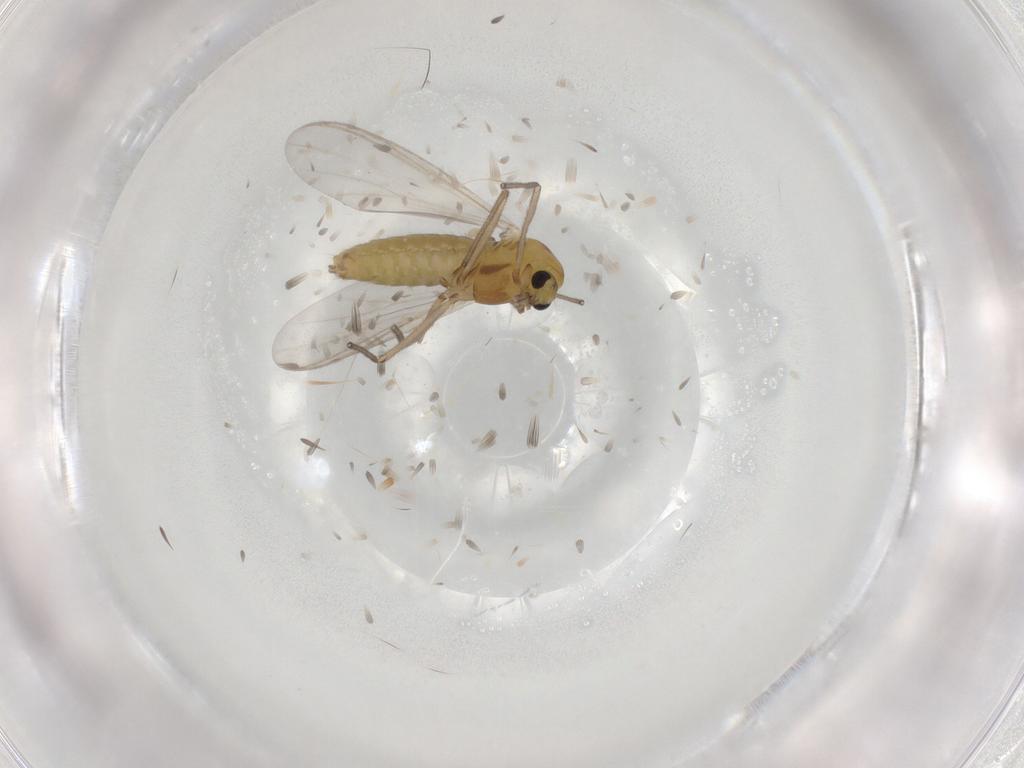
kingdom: Animalia
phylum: Arthropoda
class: Insecta
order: Diptera
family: Chironomidae
